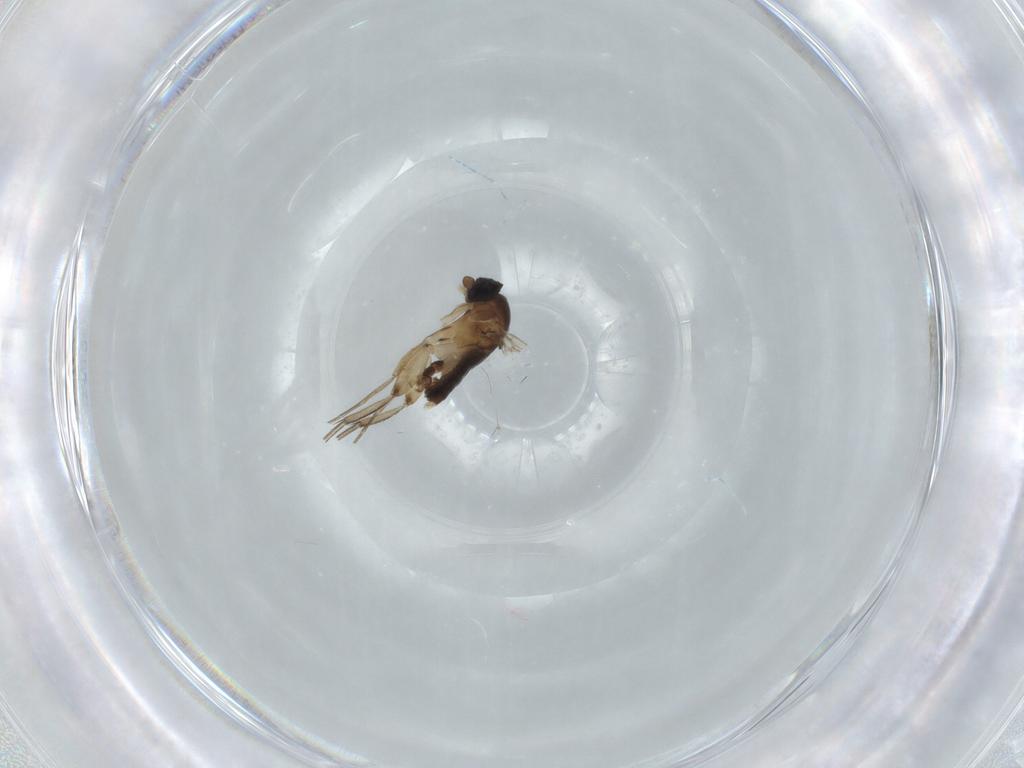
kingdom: Animalia
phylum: Arthropoda
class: Insecta
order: Diptera
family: Phoridae
